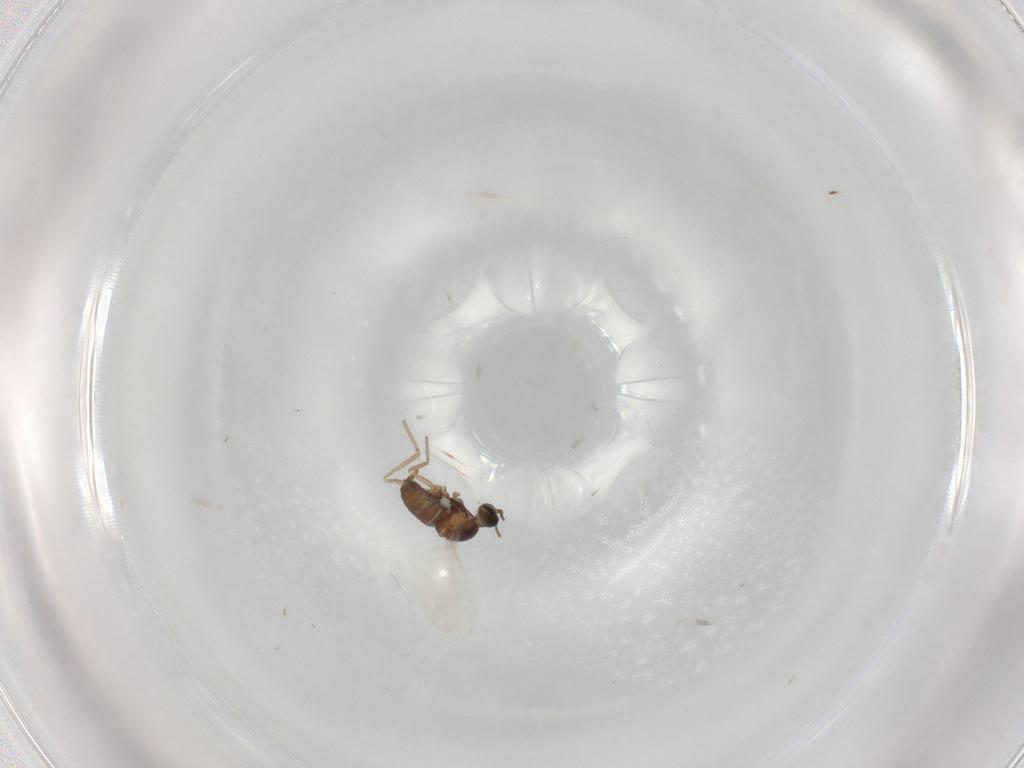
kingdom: Animalia
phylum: Arthropoda
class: Insecta
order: Diptera
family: Cecidomyiidae
